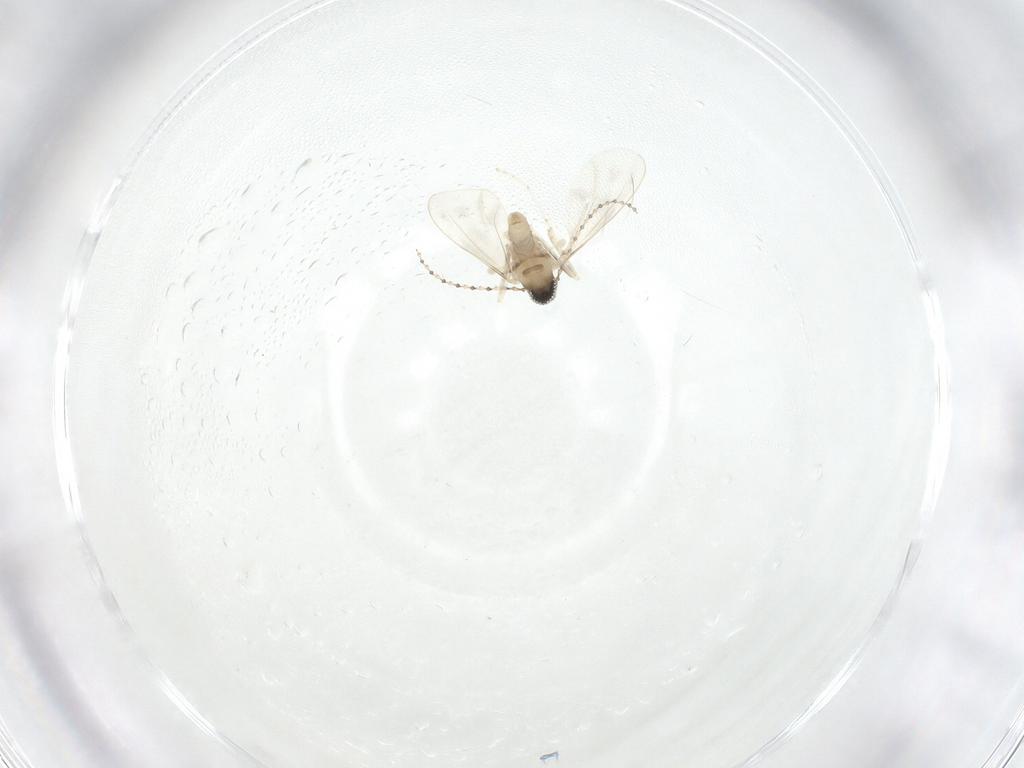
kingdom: Animalia
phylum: Arthropoda
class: Insecta
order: Diptera
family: Cecidomyiidae
